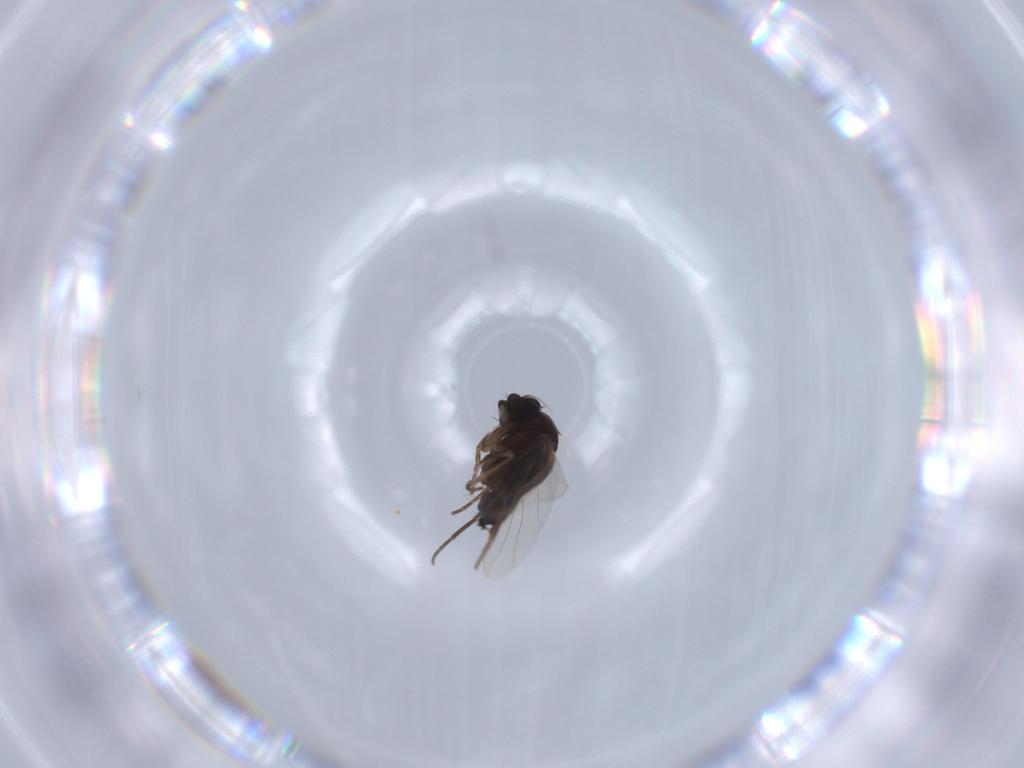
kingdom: Animalia
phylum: Arthropoda
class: Insecta
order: Diptera
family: Phoridae
